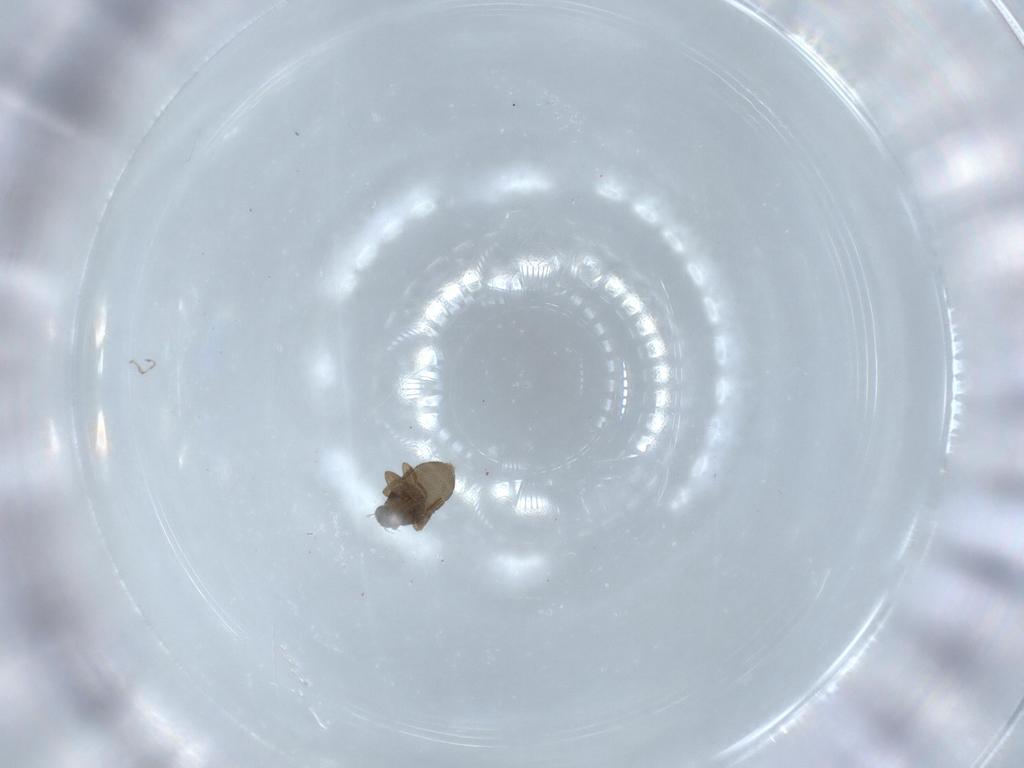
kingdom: Animalia
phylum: Arthropoda
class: Insecta
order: Diptera
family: Phoridae
